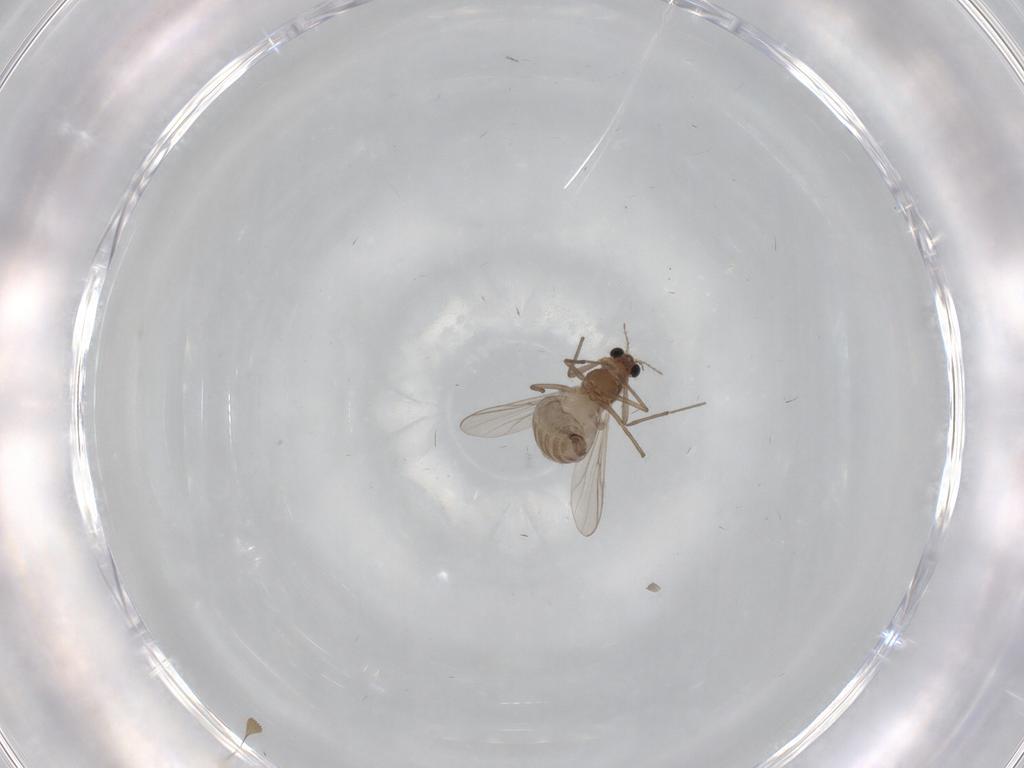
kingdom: Animalia
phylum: Arthropoda
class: Insecta
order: Diptera
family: Chironomidae
